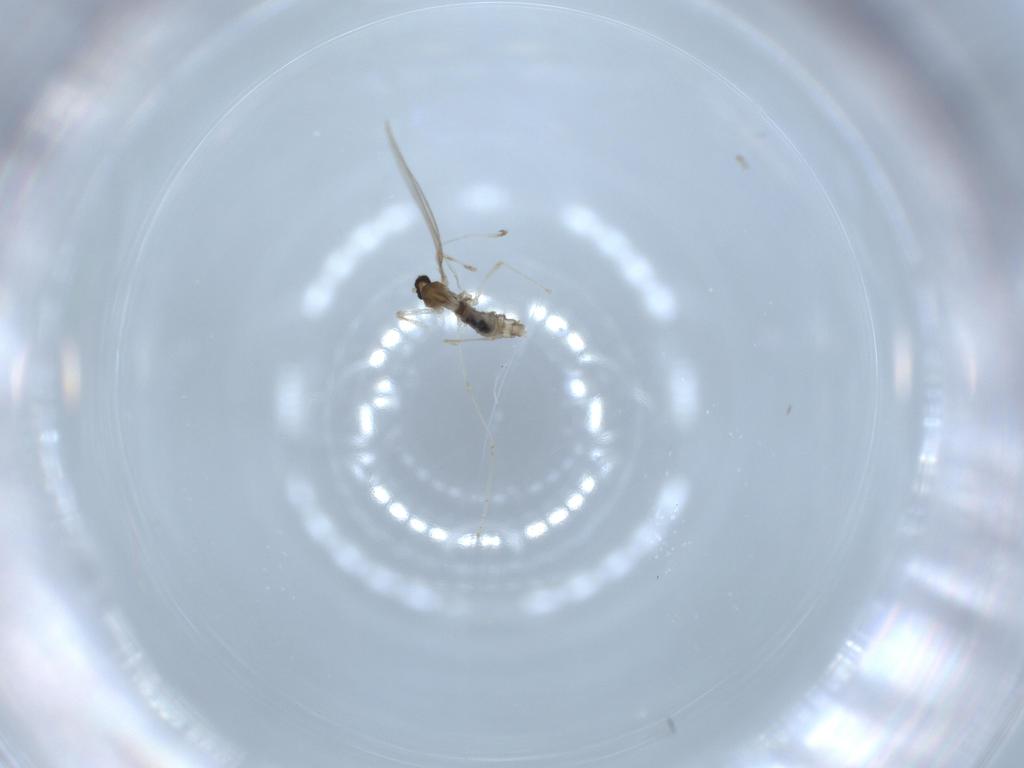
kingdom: Animalia
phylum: Arthropoda
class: Insecta
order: Diptera
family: Cecidomyiidae
